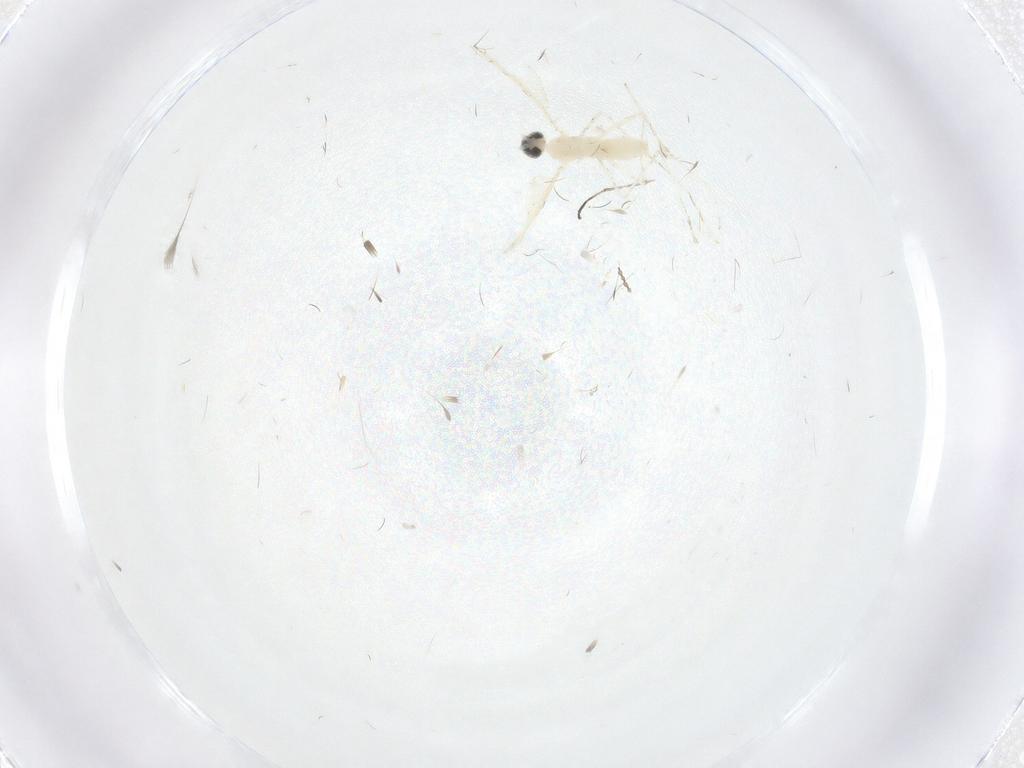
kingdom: Animalia
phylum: Arthropoda
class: Insecta
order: Diptera
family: Cecidomyiidae
